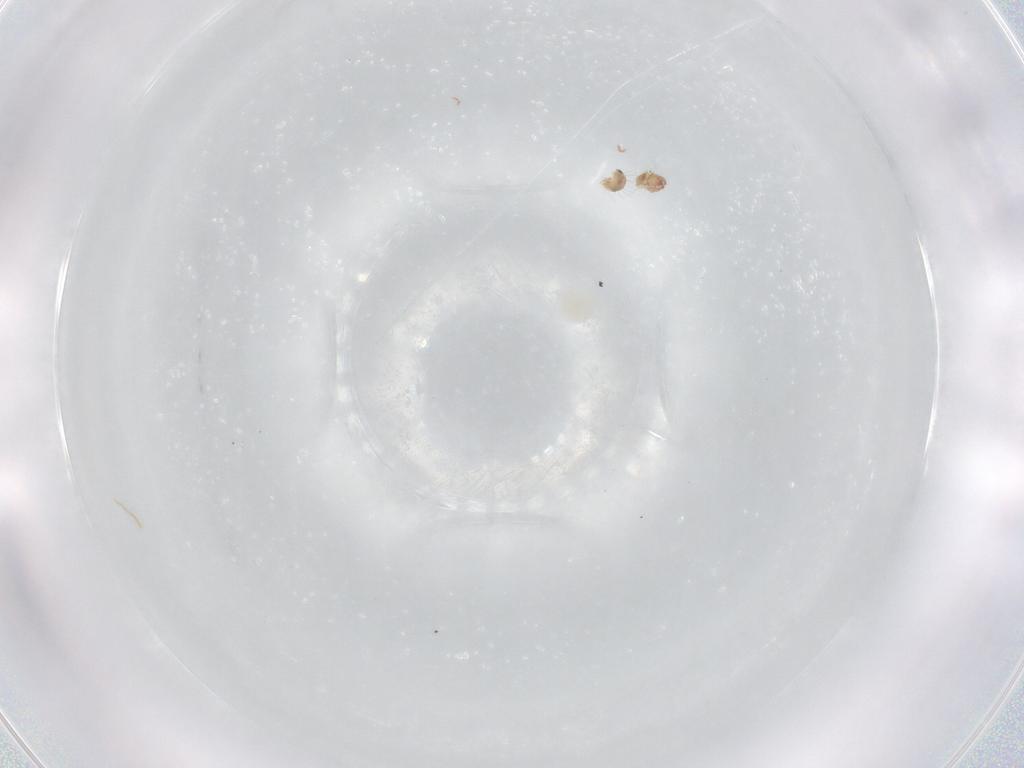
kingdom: Animalia
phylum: Arthropoda
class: Arachnida
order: Sarcoptiformes
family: Humerobatidae
